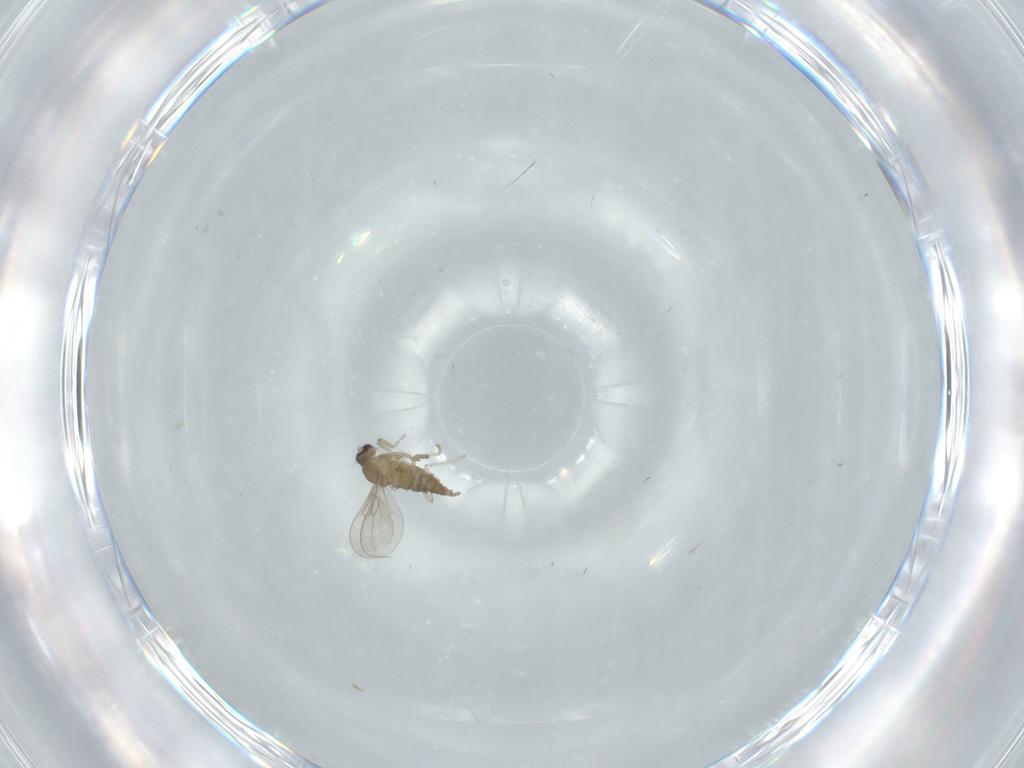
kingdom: Animalia
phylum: Arthropoda
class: Insecta
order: Diptera
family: Cecidomyiidae
